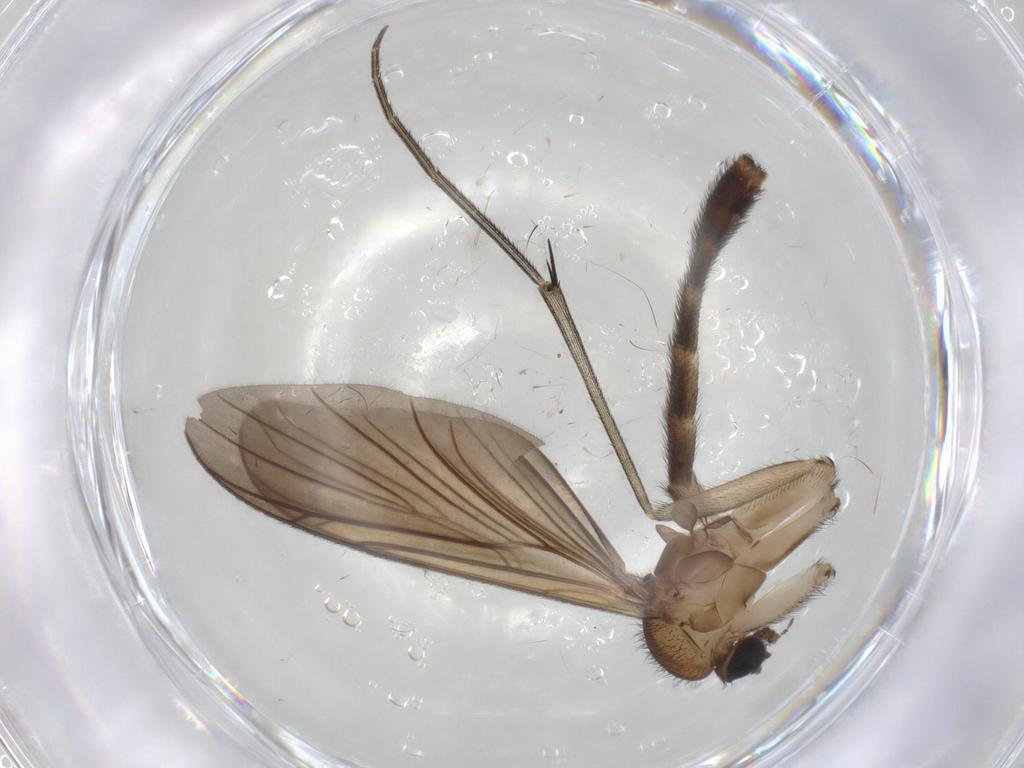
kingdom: Animalia
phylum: Arthropoda
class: Insecta
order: Diptera
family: Keroplatidae
